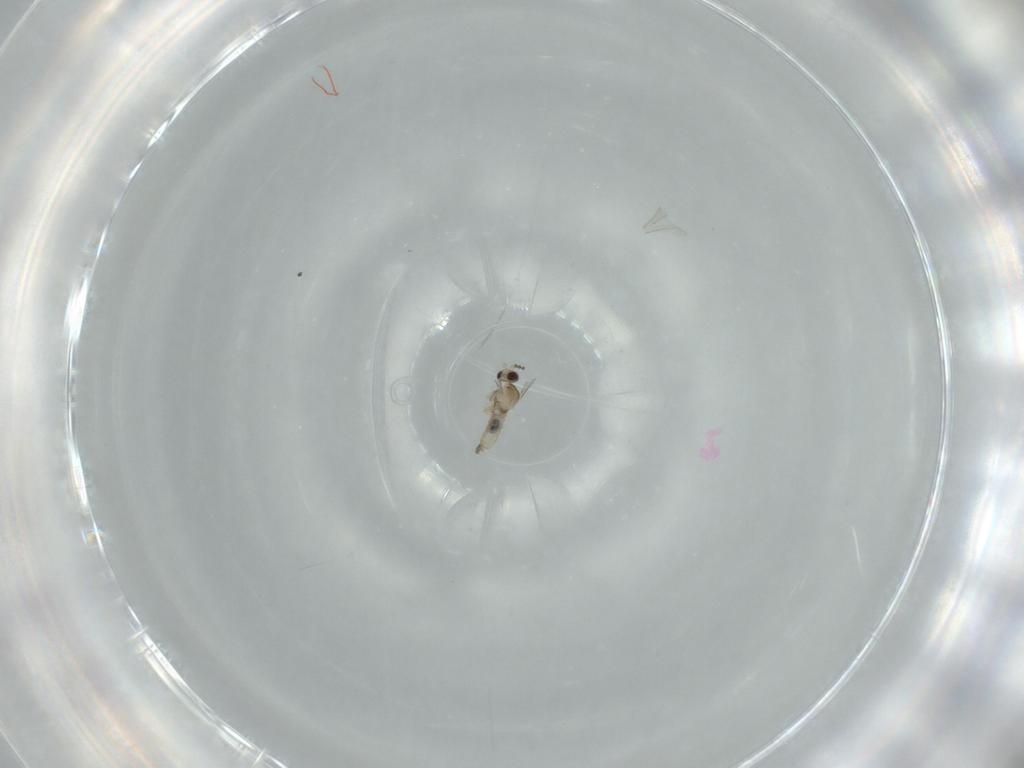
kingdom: Animalia
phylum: Arthropoda
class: Insecta
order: Diptera
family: Cecidomyiidae
